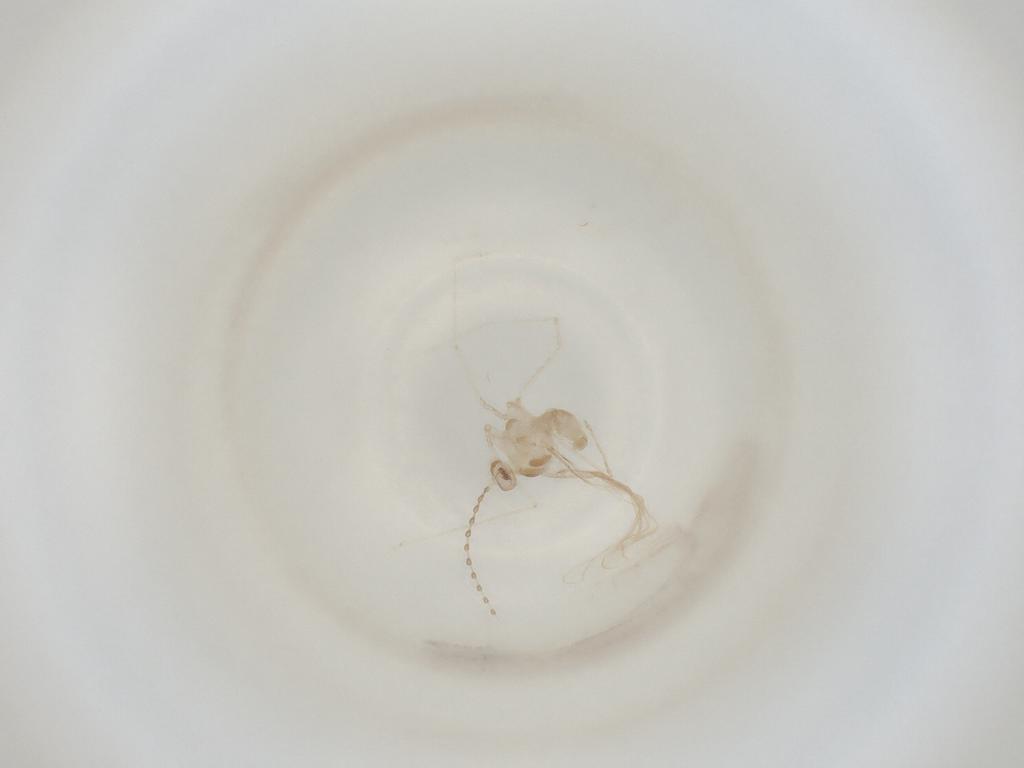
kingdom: Animalia
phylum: Arthropoda
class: Insecta
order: Diptera
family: Cecidomyiidae
